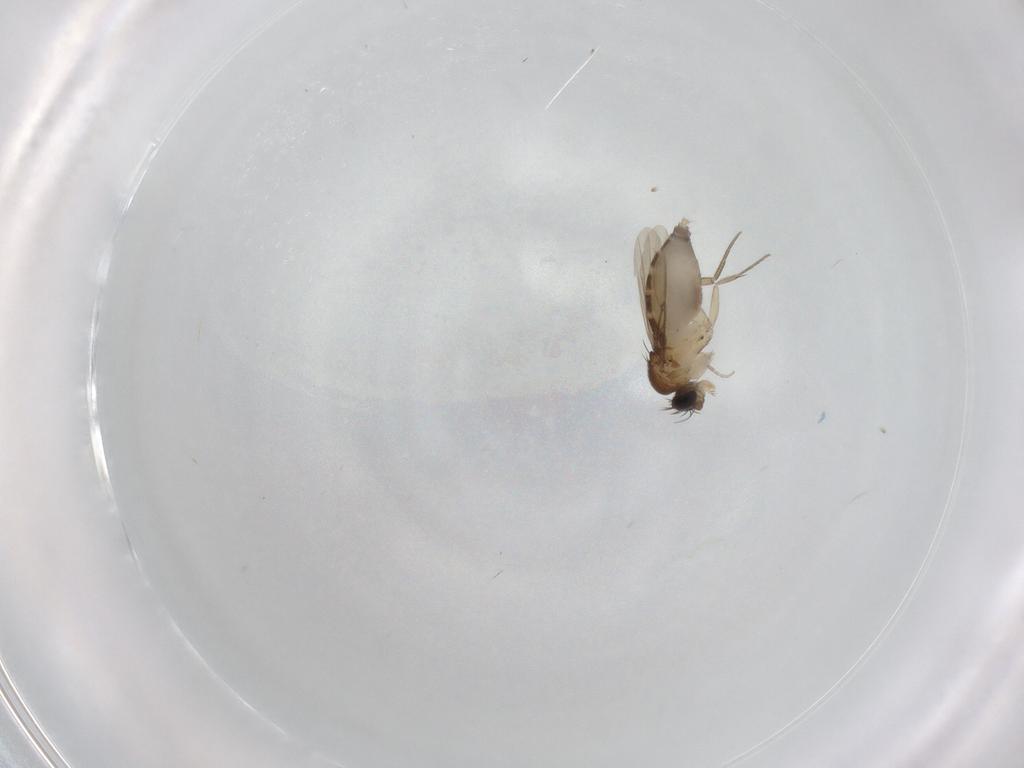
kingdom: Animalia
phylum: Arthropoda
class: Insecta
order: Diptera
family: Phoridae
